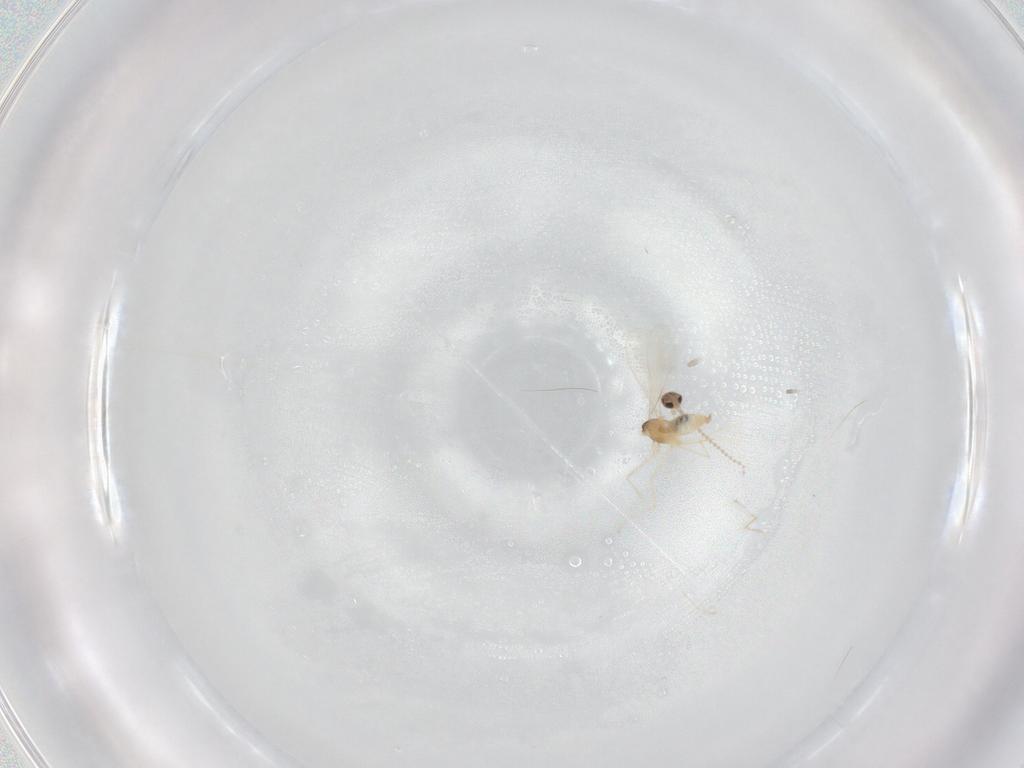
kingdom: Animalia
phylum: Arthropoda
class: Insecta
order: Diptera
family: Cecidomyiidae
